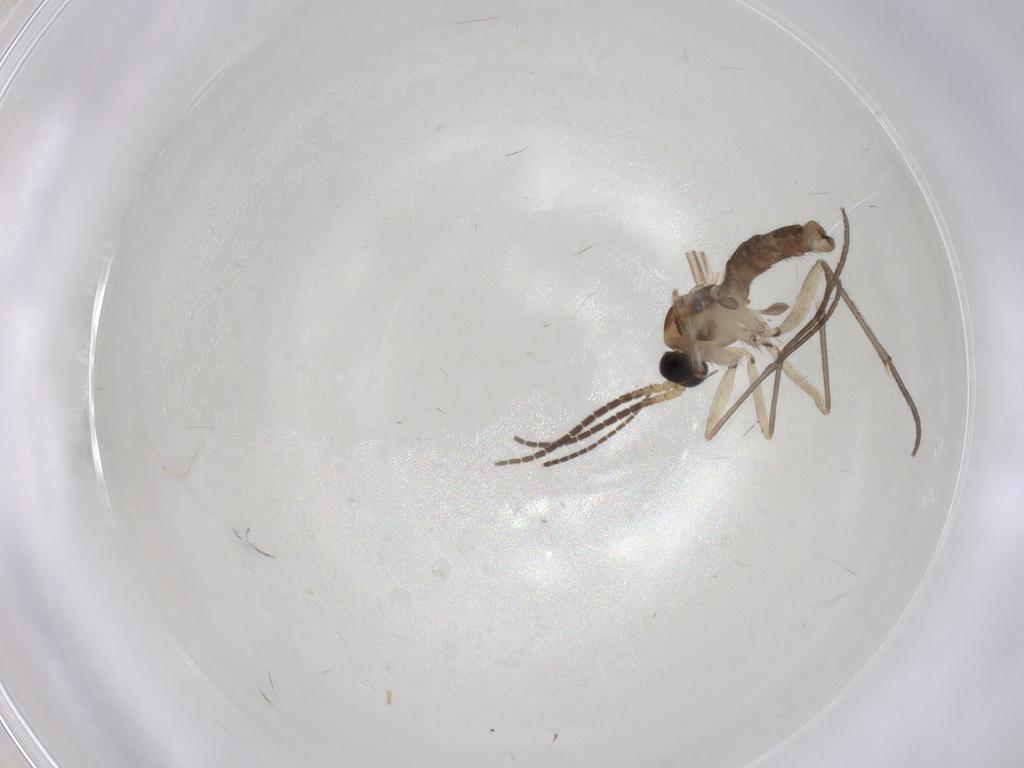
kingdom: Animalia
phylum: Arthropoda
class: Insecta
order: Diptera
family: Sciaridae
